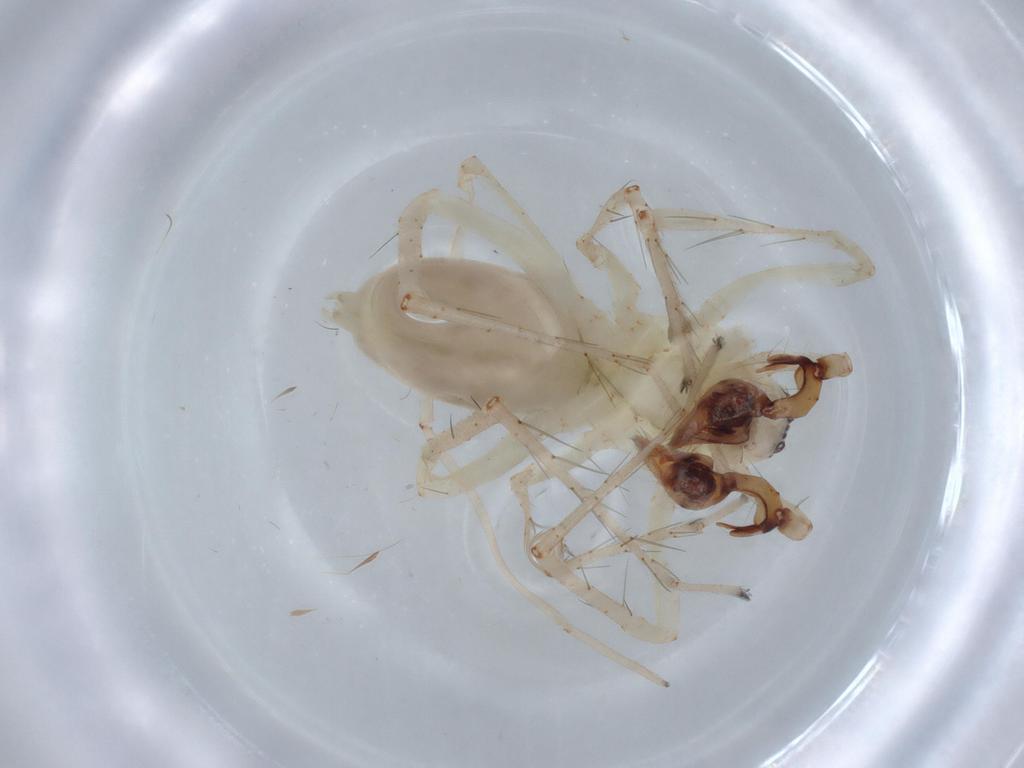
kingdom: Animalia
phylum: Arthropoda
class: Arachnida
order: Araneae
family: Anyphaenidae
